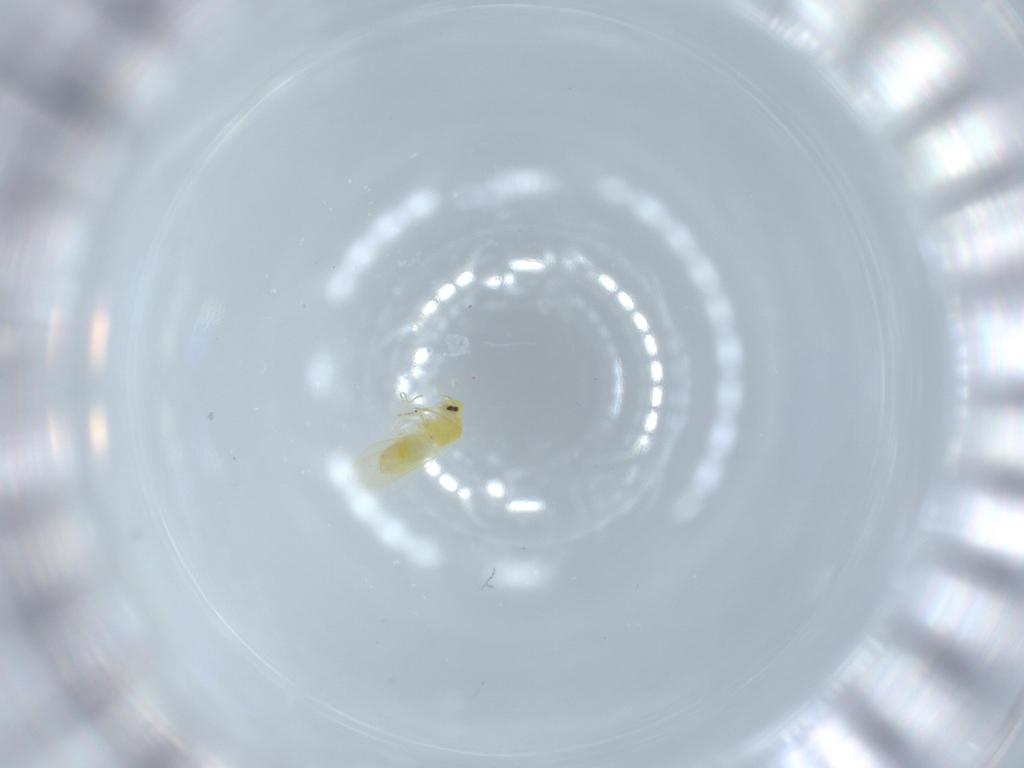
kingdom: Animalia
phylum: Arthropoda
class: Insecta
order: Hemiptera
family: Aleyrodidae
